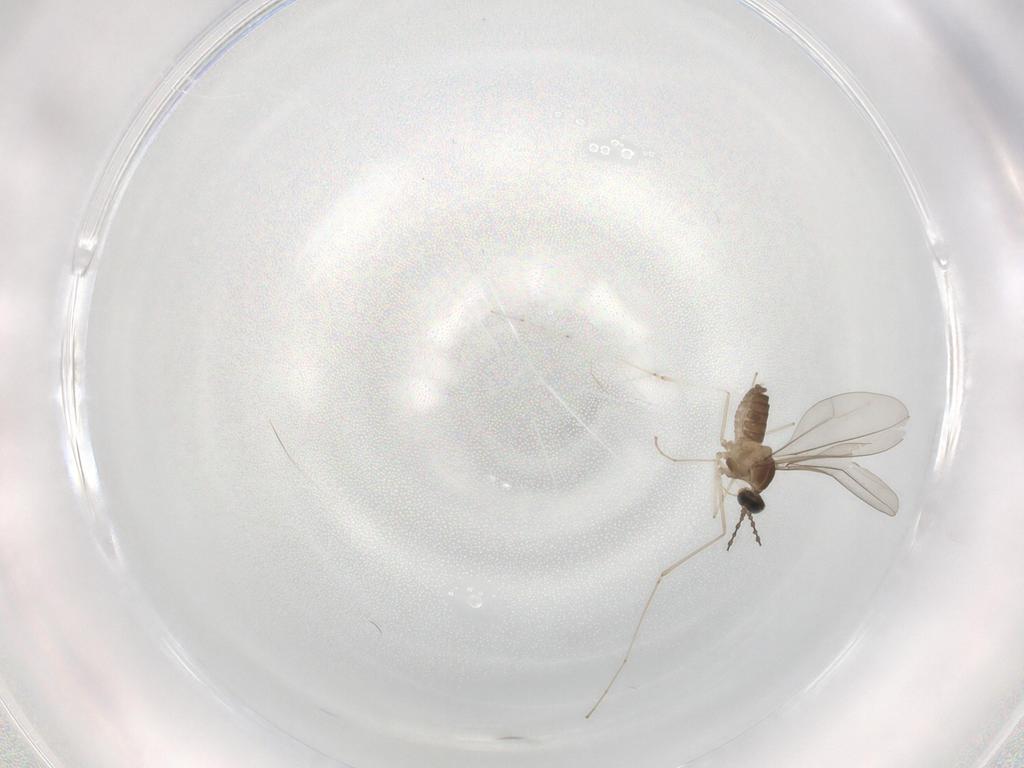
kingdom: Animalia
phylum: Arthropoda
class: Insecta
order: Diptera
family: Cecidomyiidae
